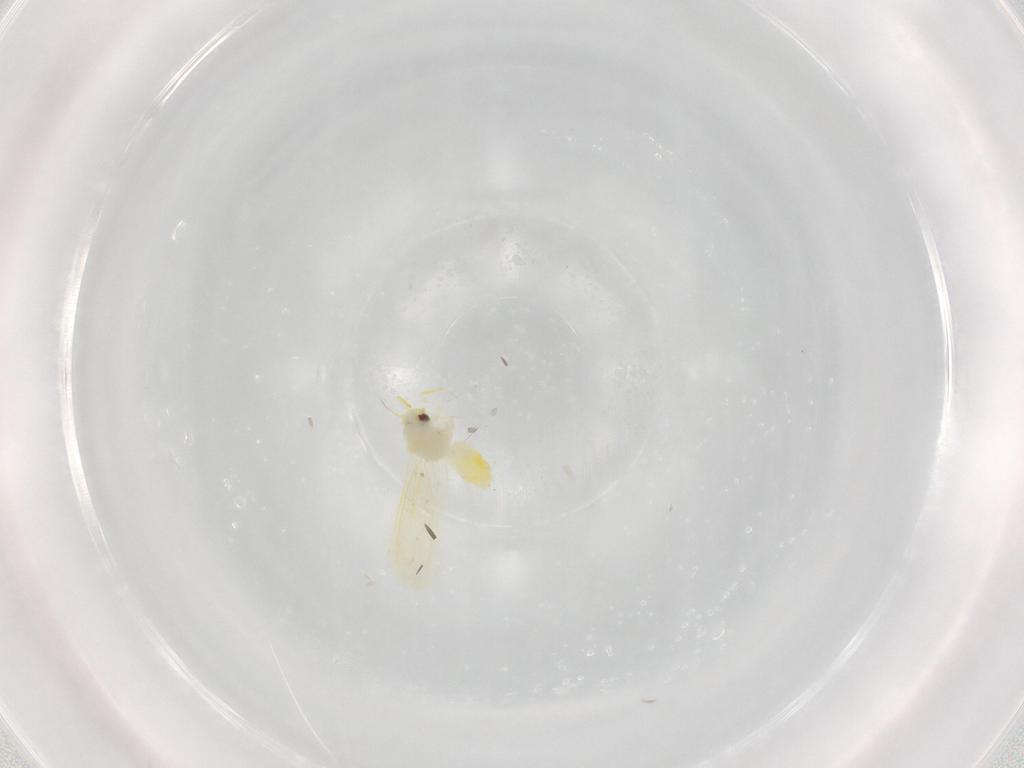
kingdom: Animalia
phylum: Arthropoda
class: Insecta
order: Hemiptera
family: Aleyrodidae
